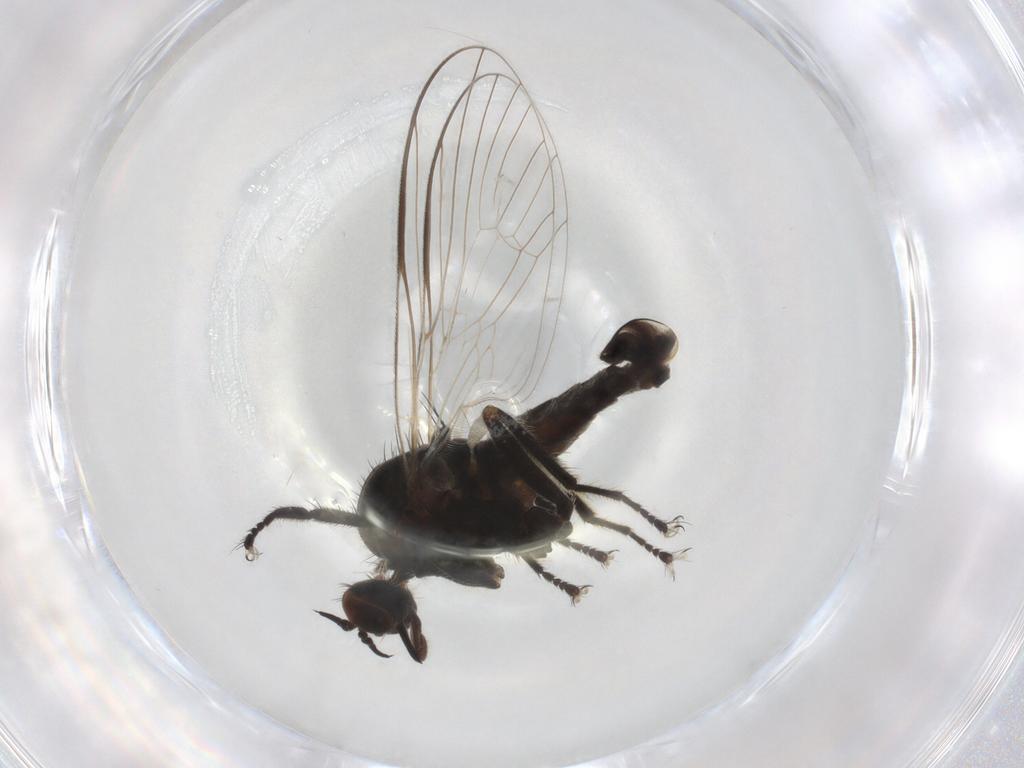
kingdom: Animalia
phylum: Arthropoda
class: Insecta
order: Diptera
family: Empididae
